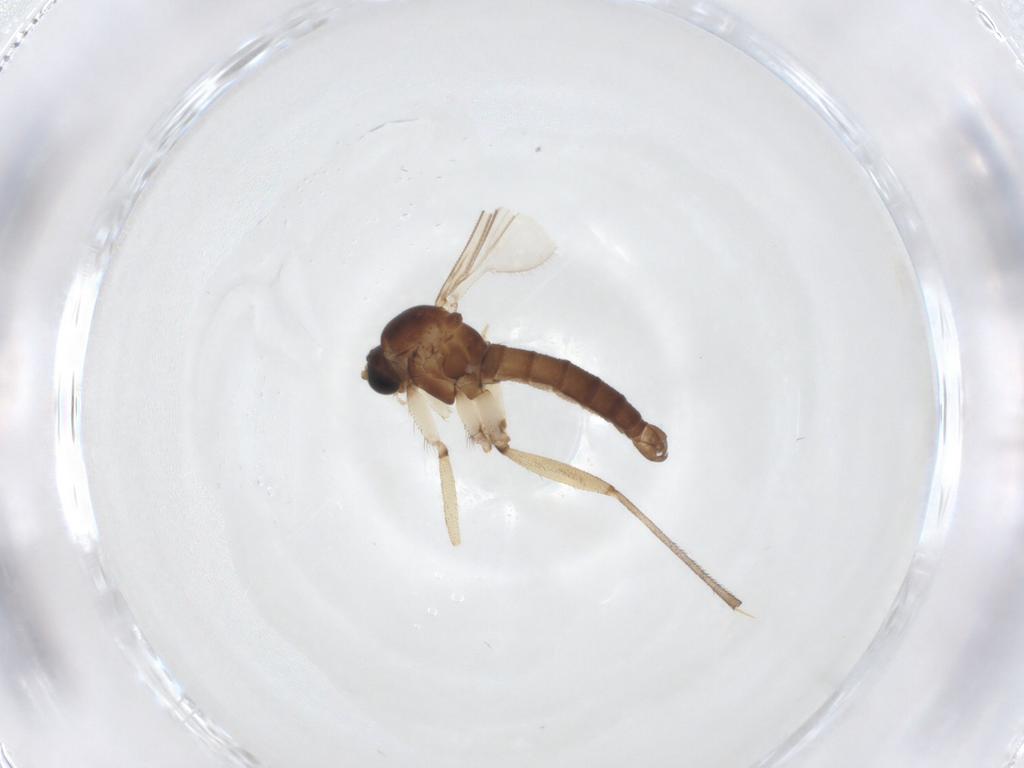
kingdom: Animalia
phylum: Arthropoda
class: Insecta
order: Diptera
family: Sciaridae
